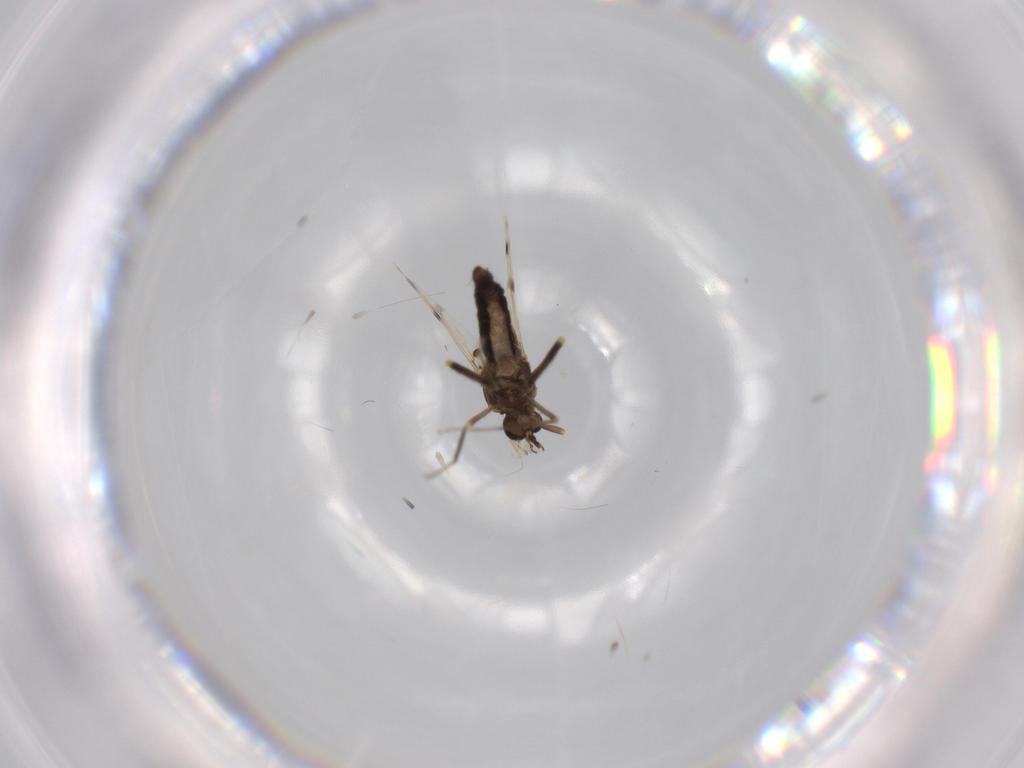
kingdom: Animalia
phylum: Arthropoda
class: Insecta
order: Diptera
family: Ceratopogonidae
